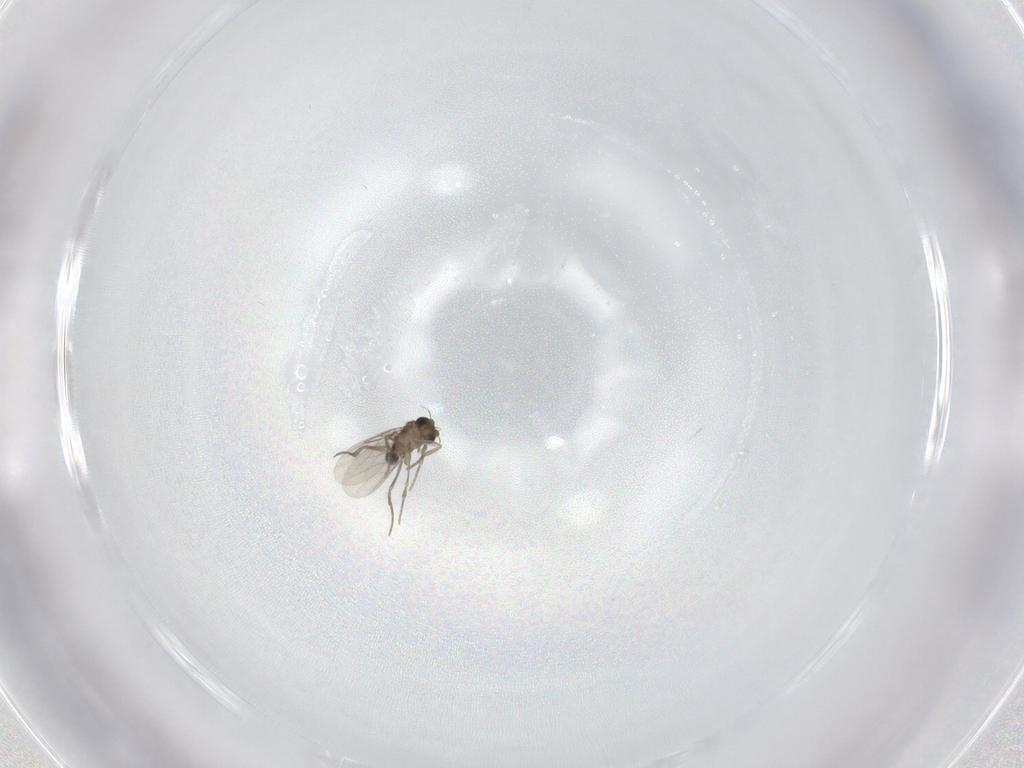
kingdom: Animalia
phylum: Arthropoda
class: Insecta
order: Diptera
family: Phoridae
